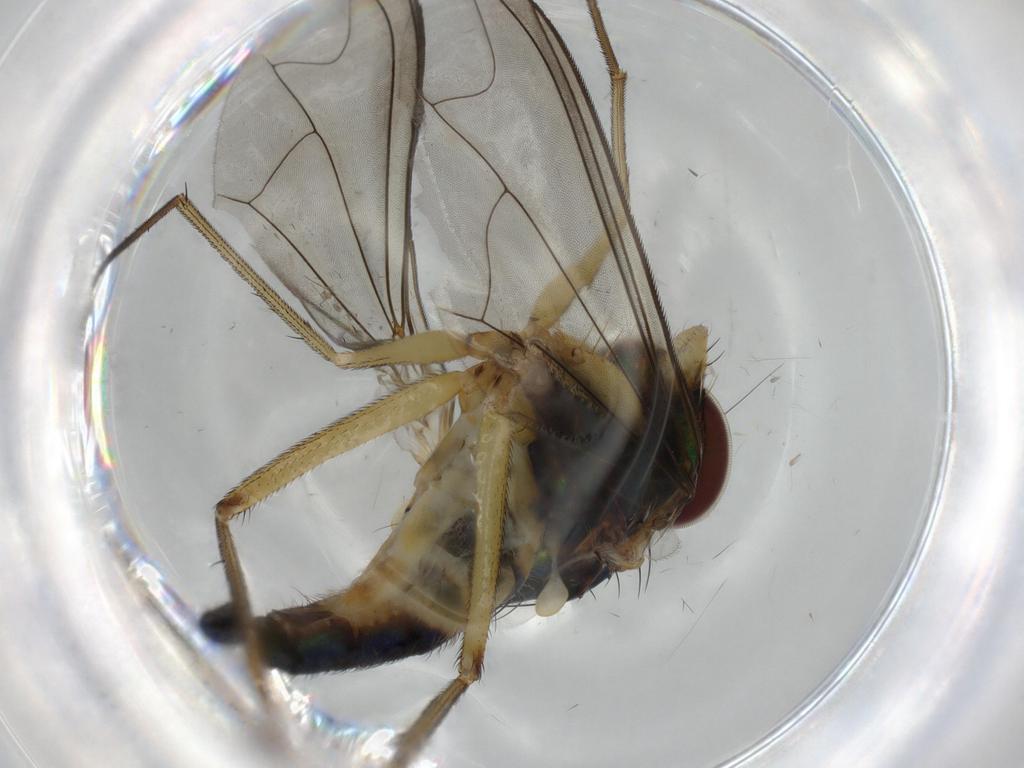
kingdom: Animalia
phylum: Arthropoda
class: Insecta
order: Diptera
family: Dolichopodidae
